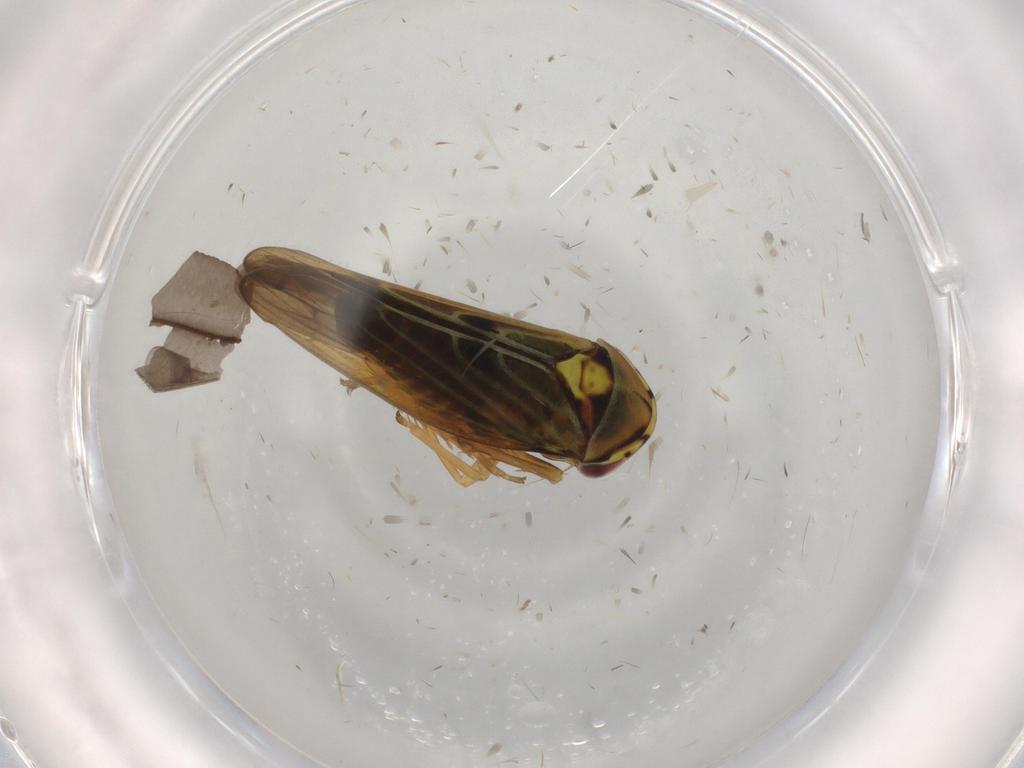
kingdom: Animalia
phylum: Arthropoda
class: Insecta
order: Hemiptera
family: Cicadellidae
